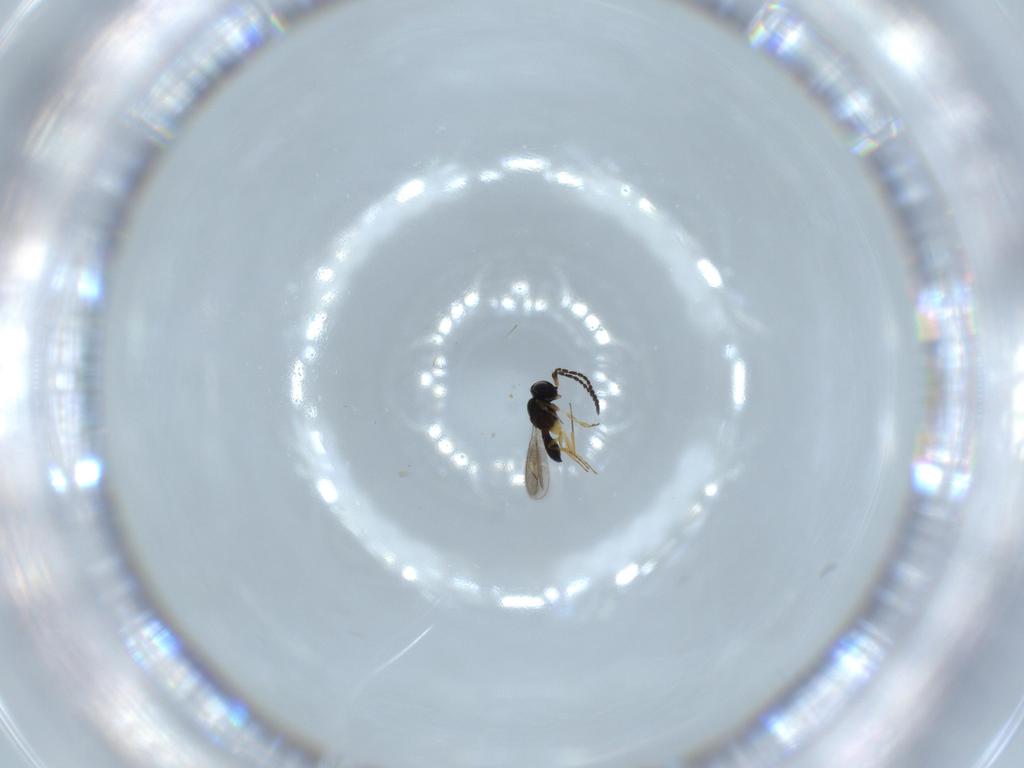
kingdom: Animalia
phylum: Arthropoda
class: Insecta
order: Hymenoptera
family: Scelionidae
